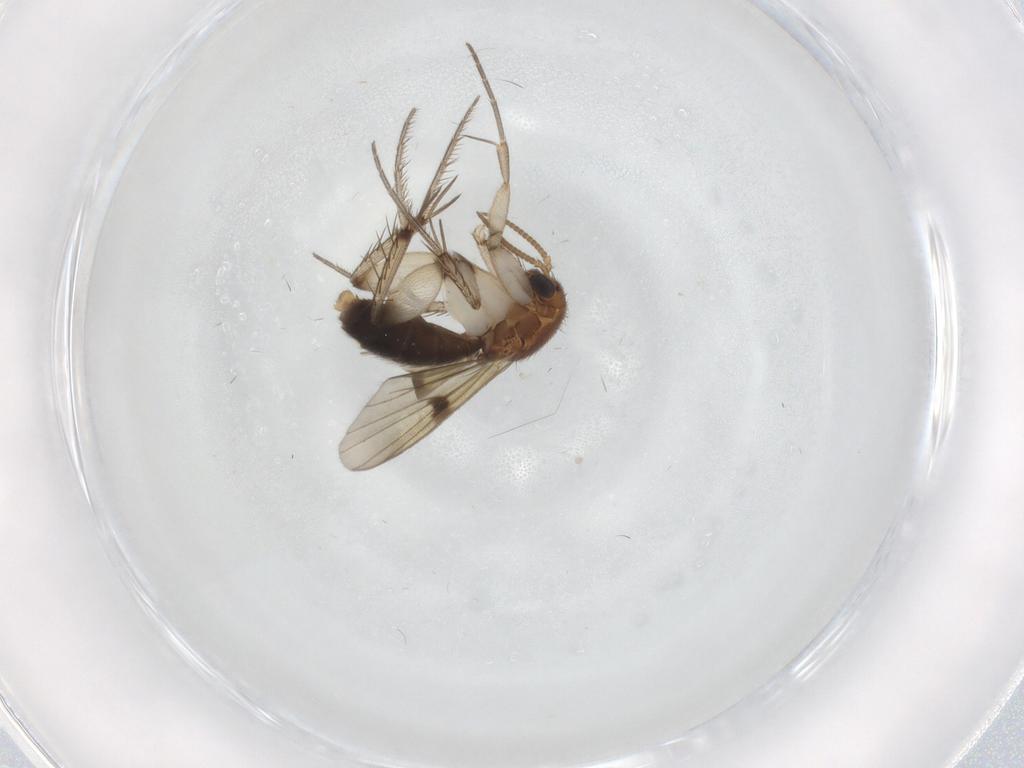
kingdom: Animalia
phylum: Arthropoda
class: Insecta
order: Diptera
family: Mycetophilidae
